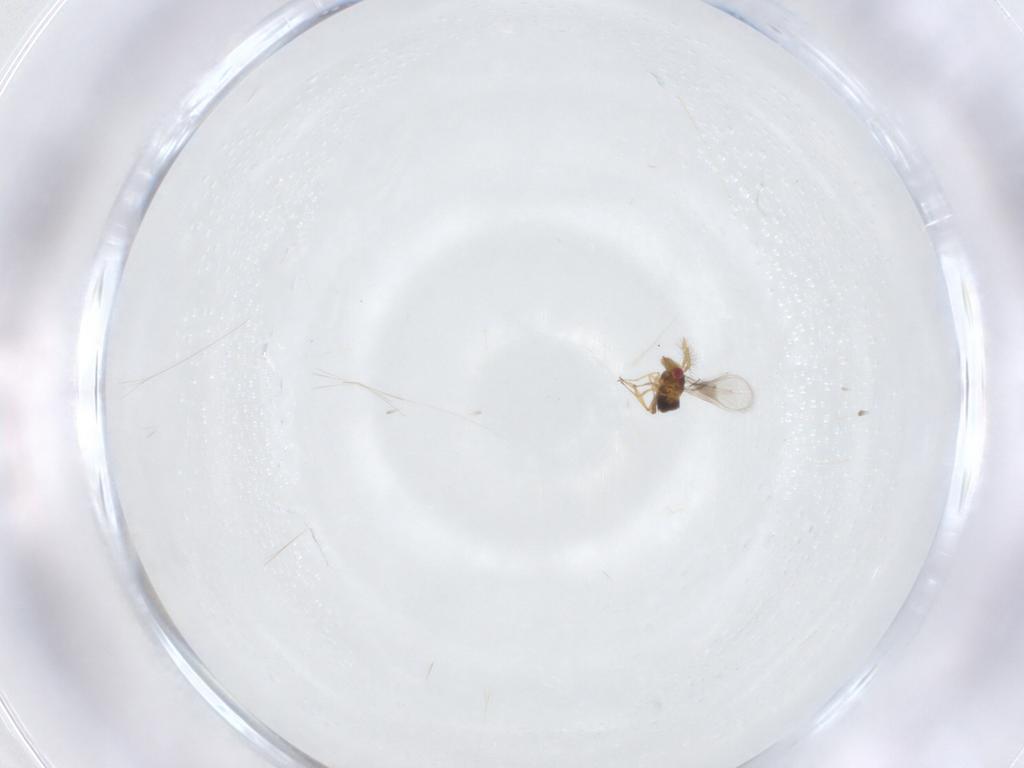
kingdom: Animalia
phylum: Arthropoda
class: Insecta
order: Hymenoptera
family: Trichogrammatidae
